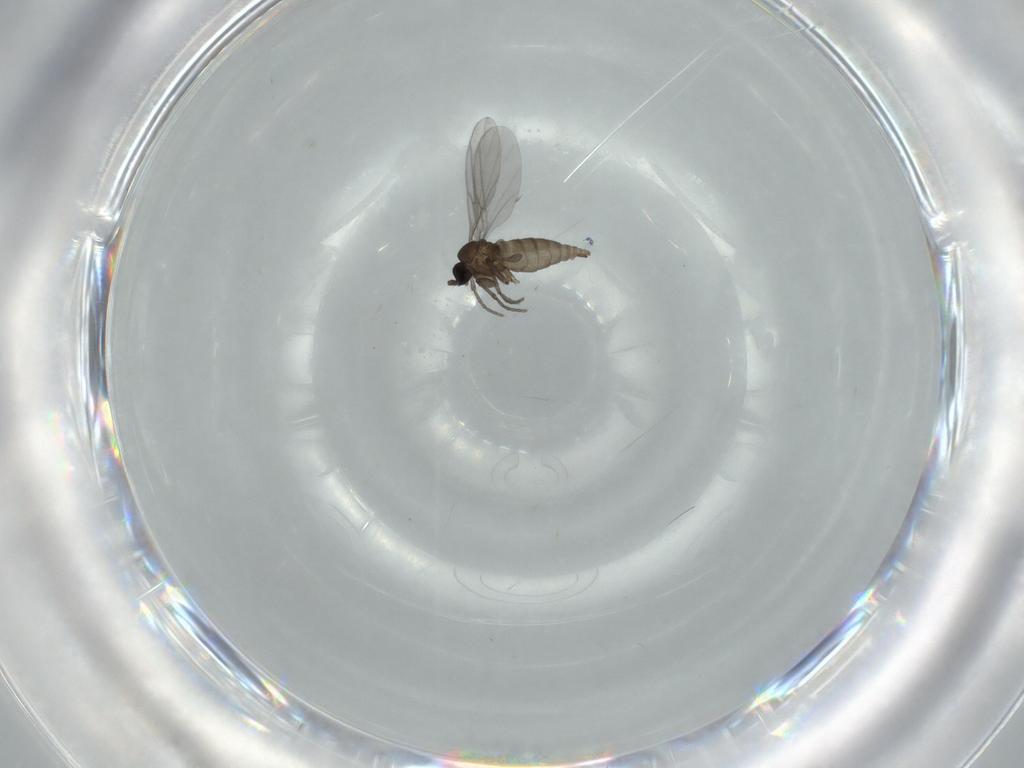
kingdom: Animalia
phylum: Arthropoda
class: Insecta
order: Diptera
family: Sciaridae
